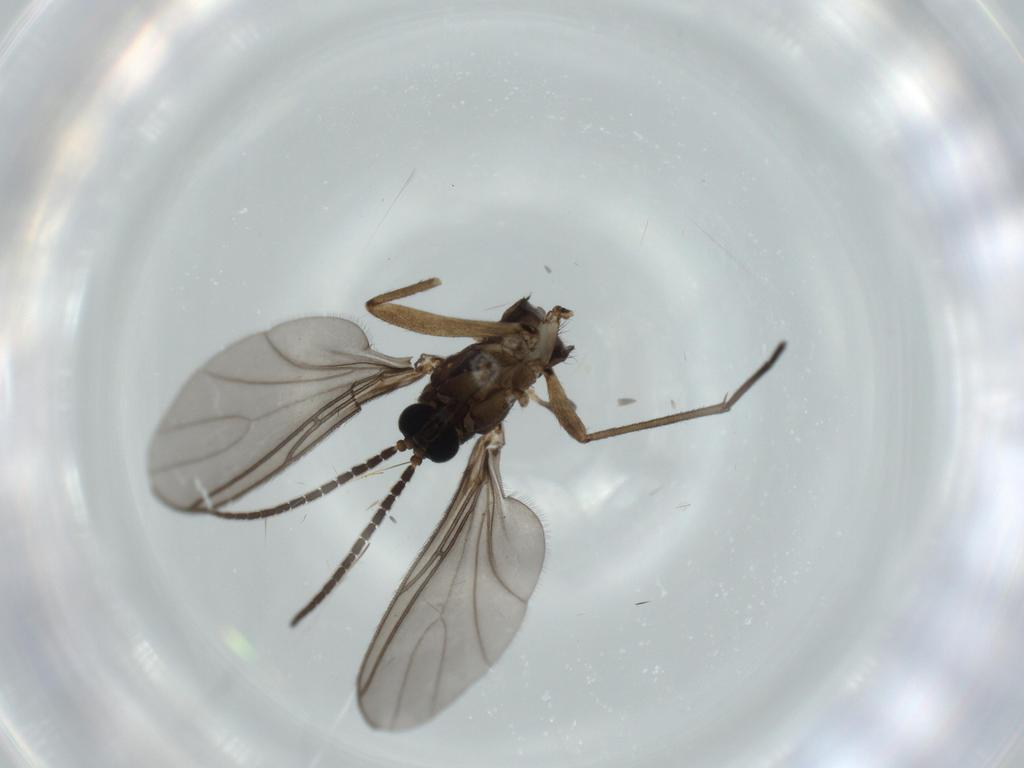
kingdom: Animalia
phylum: Arthropoda
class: Insecta
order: Diptera
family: Sciaridae
